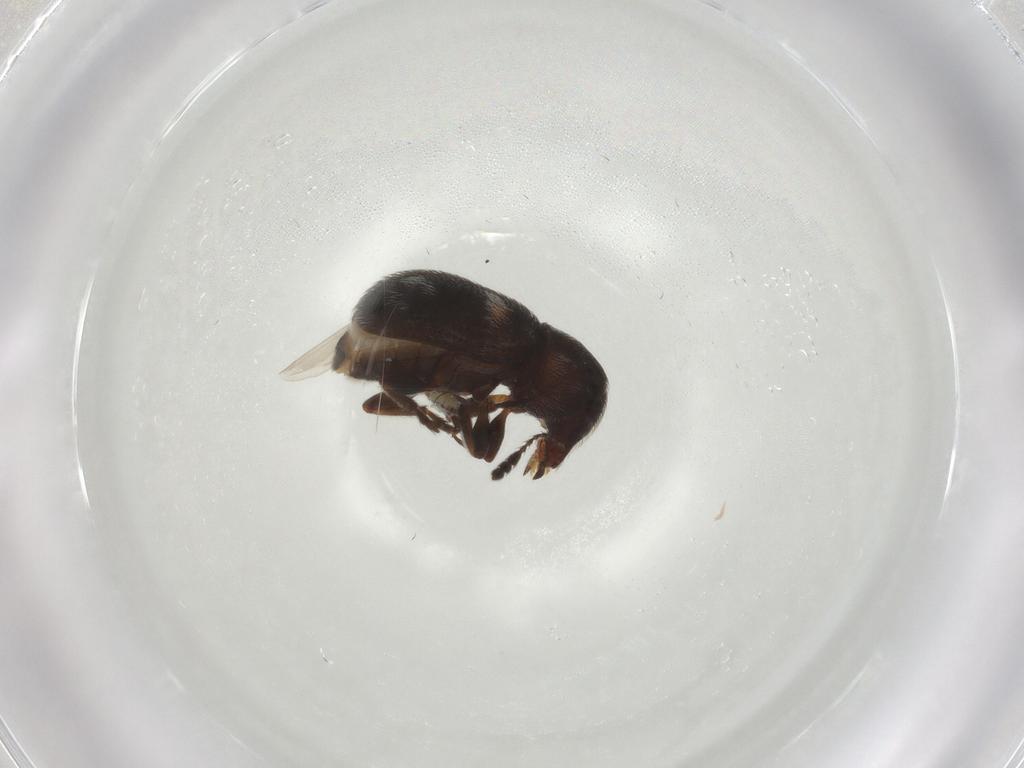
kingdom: Animalia
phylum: Arthropoda
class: Insecta
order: Coleoptera
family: Anthribidae
